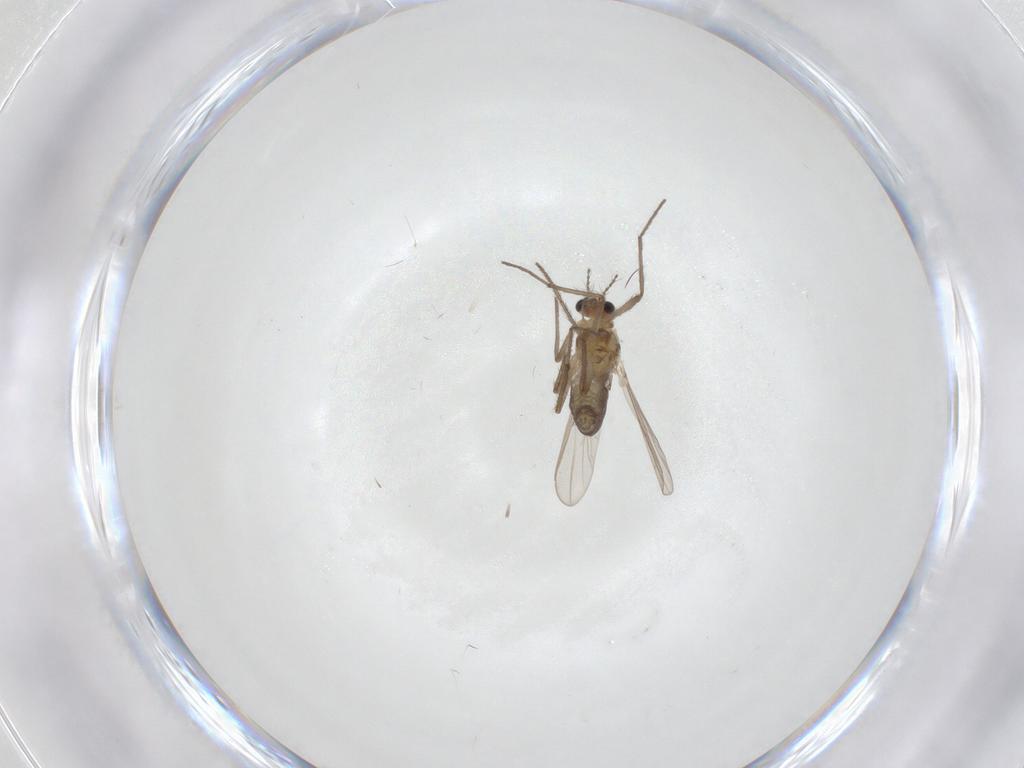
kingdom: Animalia
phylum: Arthropoda
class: Insecta
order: Diptera
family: Chironomidae
